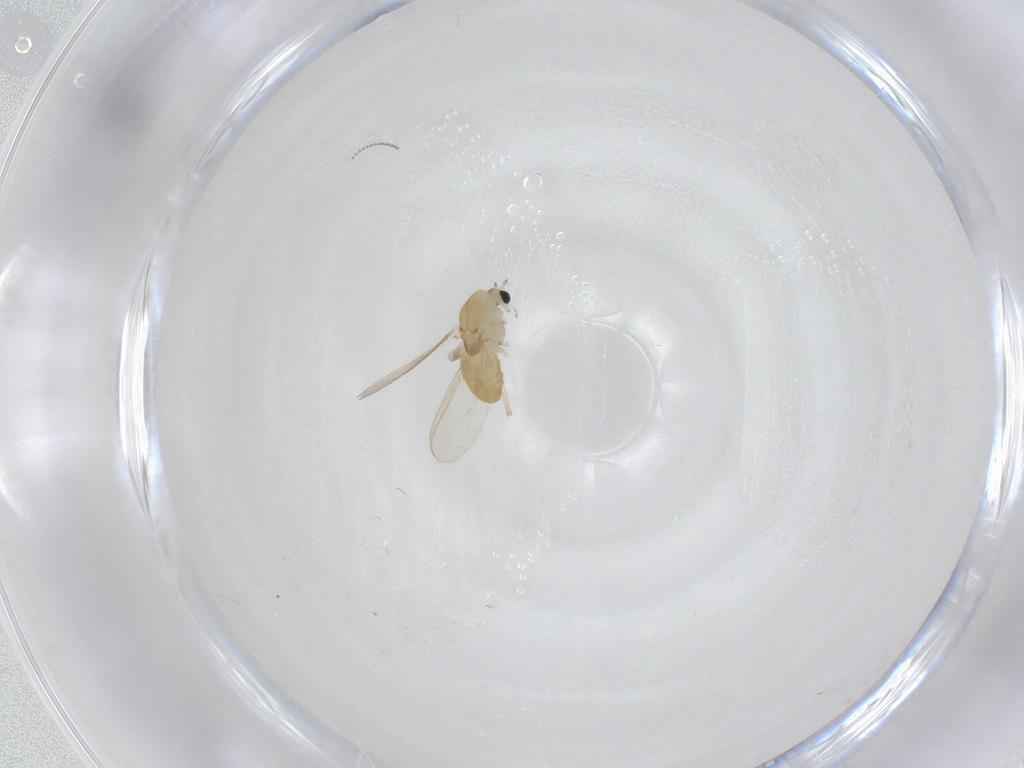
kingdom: Animalia
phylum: Arthropoda
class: Insecta
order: Diptera
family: Chironomidae
